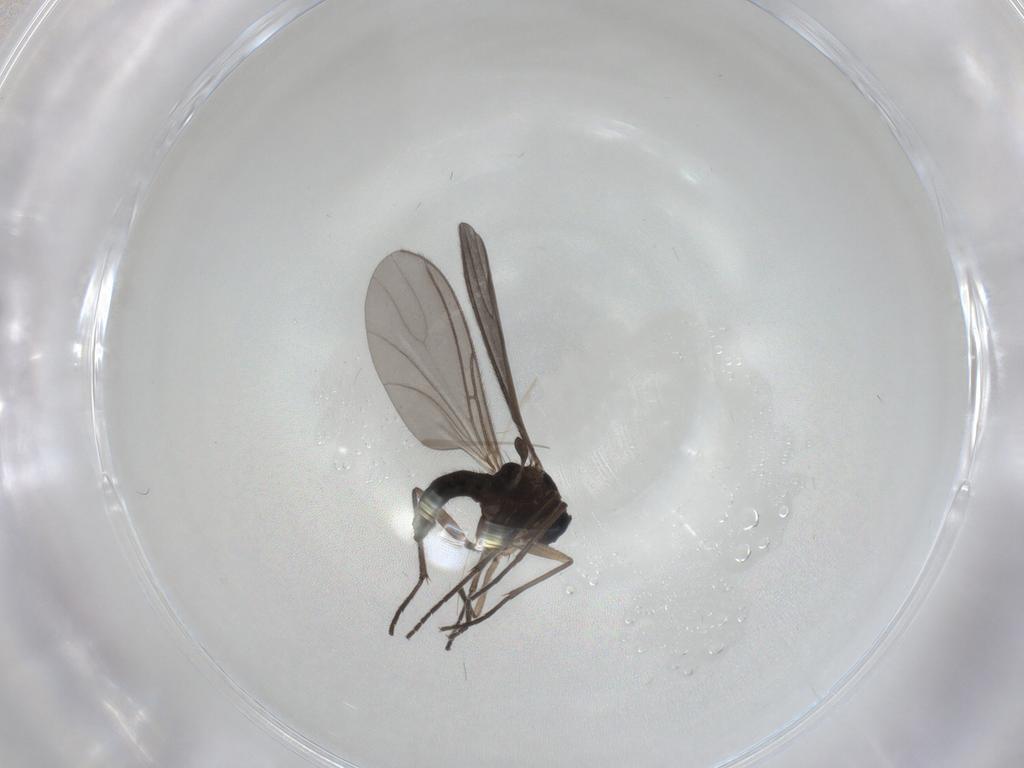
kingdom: Animalia
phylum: Arthropoda
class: Insecta
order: Diptera
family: Sciaridae
